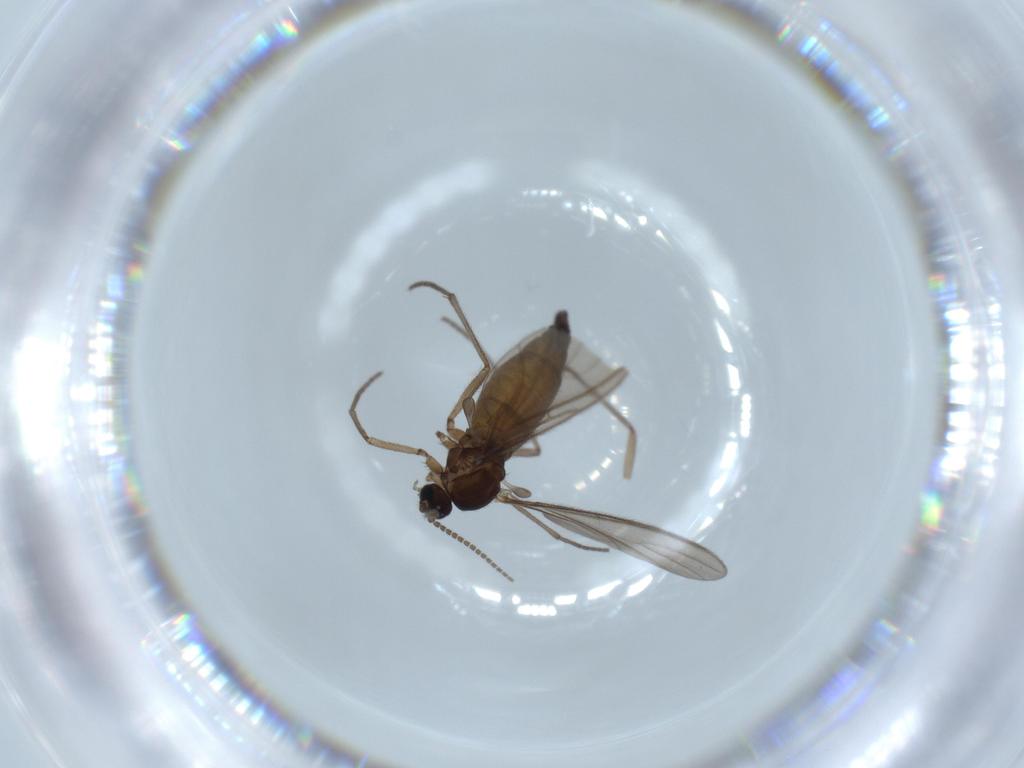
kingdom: Animalia
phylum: Arthropoda
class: Insecta
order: Diptera
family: Sciaridae
